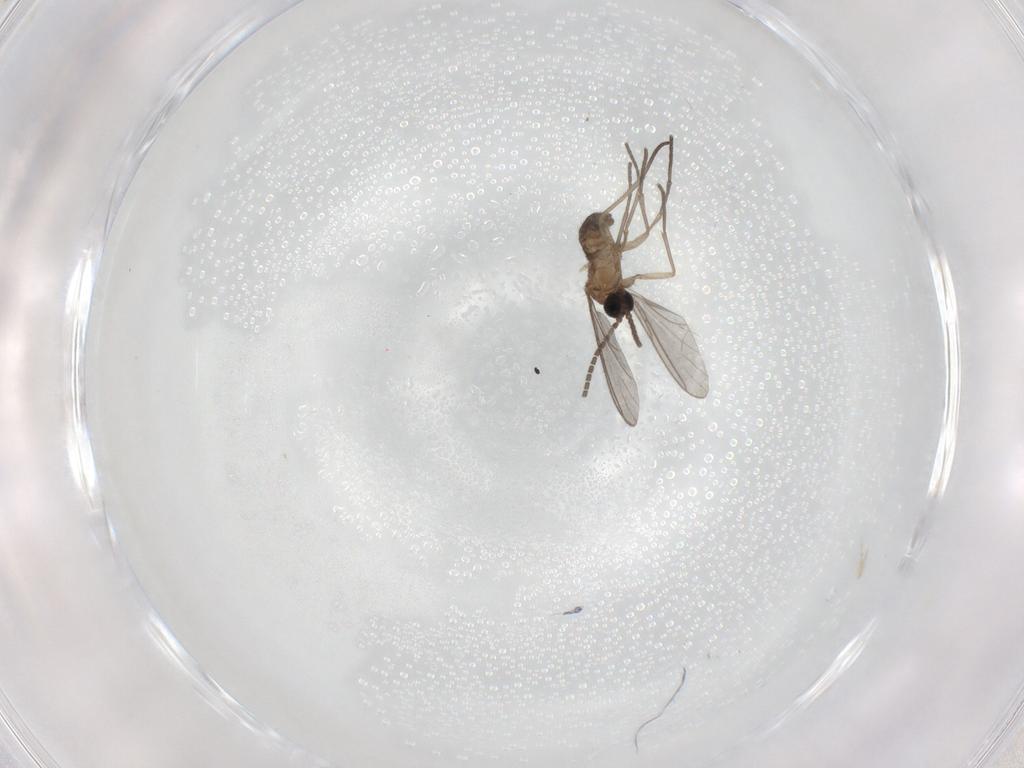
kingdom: Animalia
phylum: Arthropoda
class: Insecta
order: Diptera
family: Sciaridae
